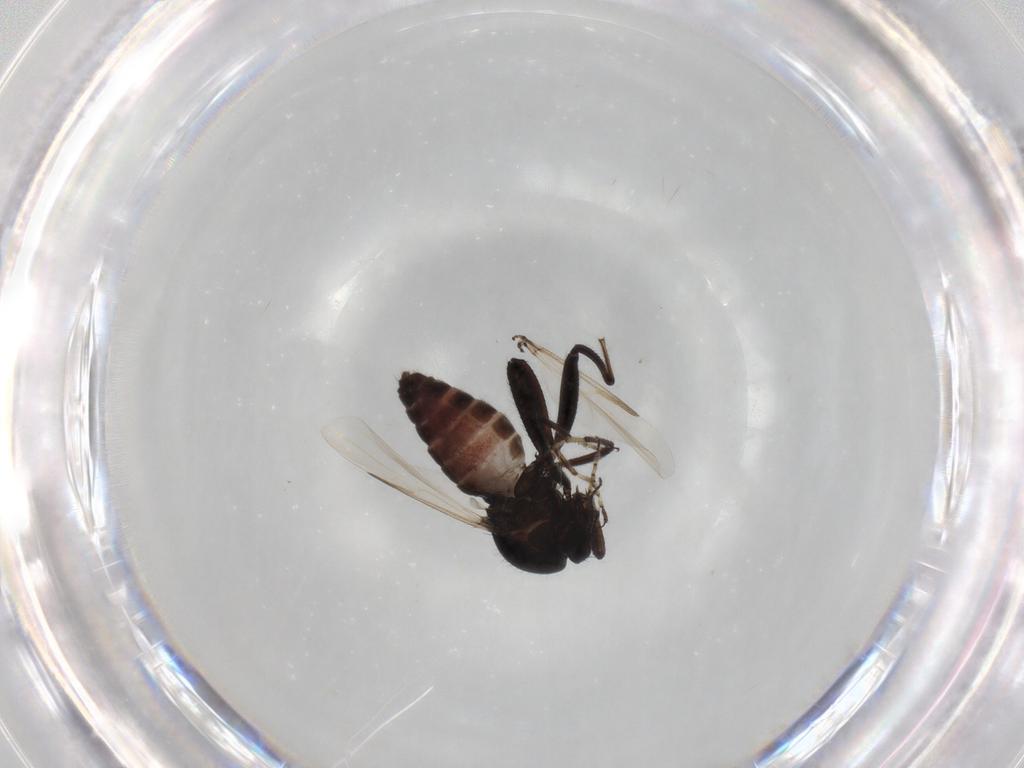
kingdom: Animalia
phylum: Arthropoda
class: Insecta
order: Diptera
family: Ceratopogonidae
